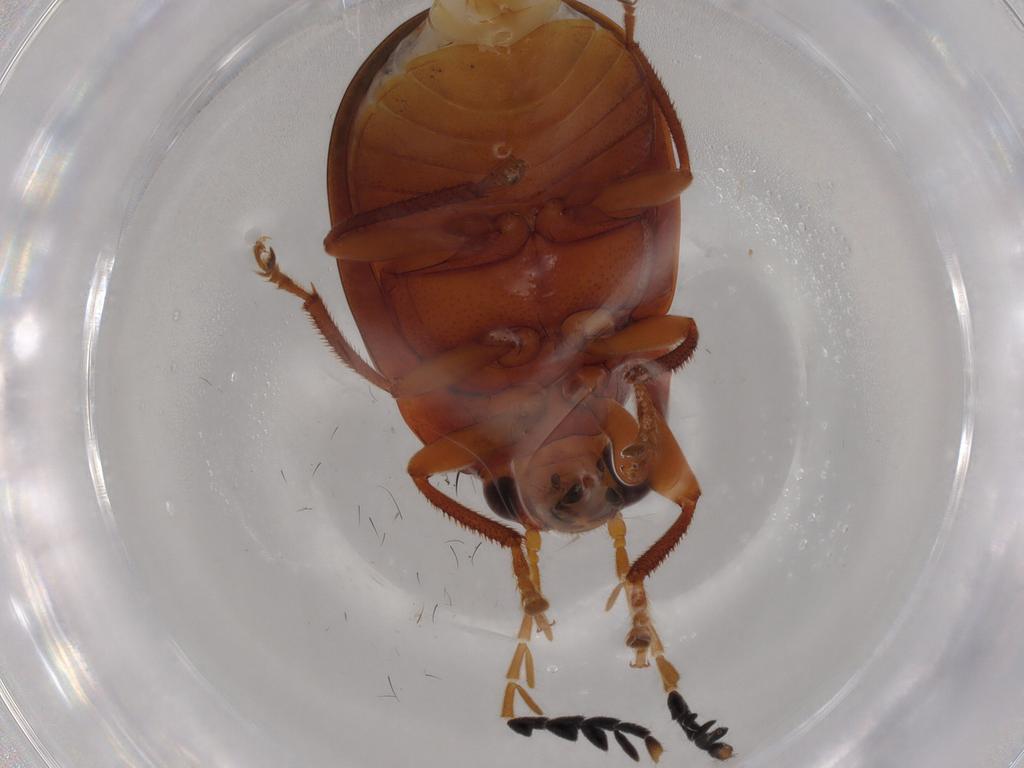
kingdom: Animalia
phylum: Arthropoda
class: Insecta
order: Coleoptera
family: Ptilodactylidae
